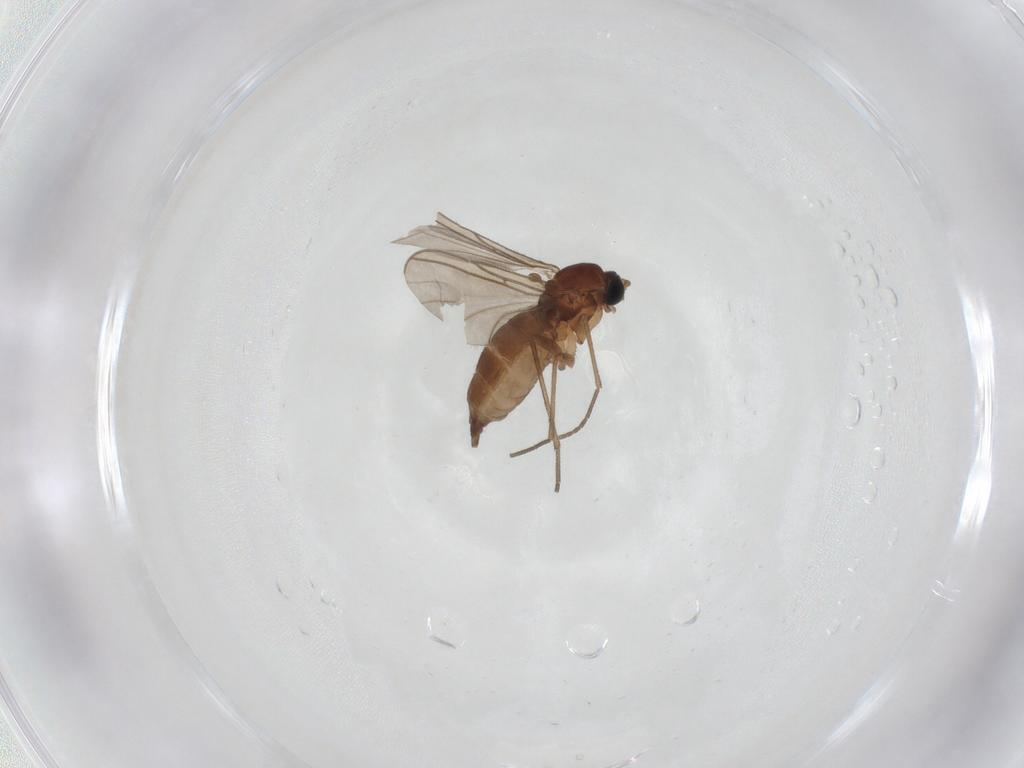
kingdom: Animalia
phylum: Arthropoda
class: Insecta
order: Diptera
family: Sciaridae
